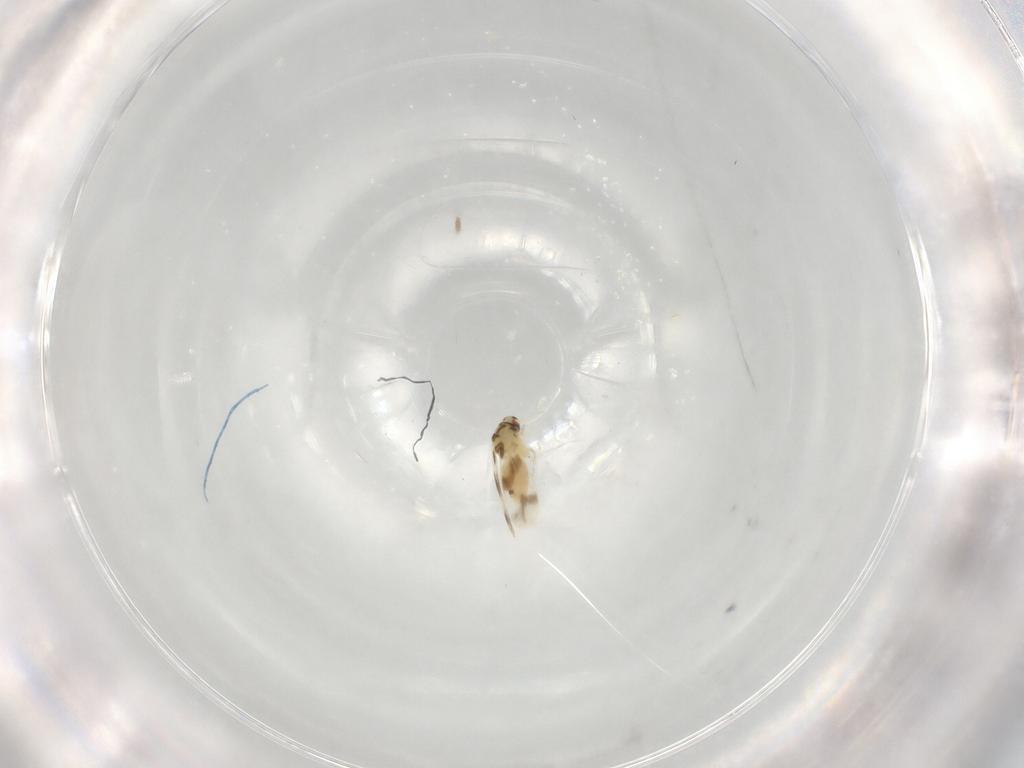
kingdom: Animalia
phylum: Arthropoda
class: Insecta
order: Hemiptera
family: Aleyrodidae
